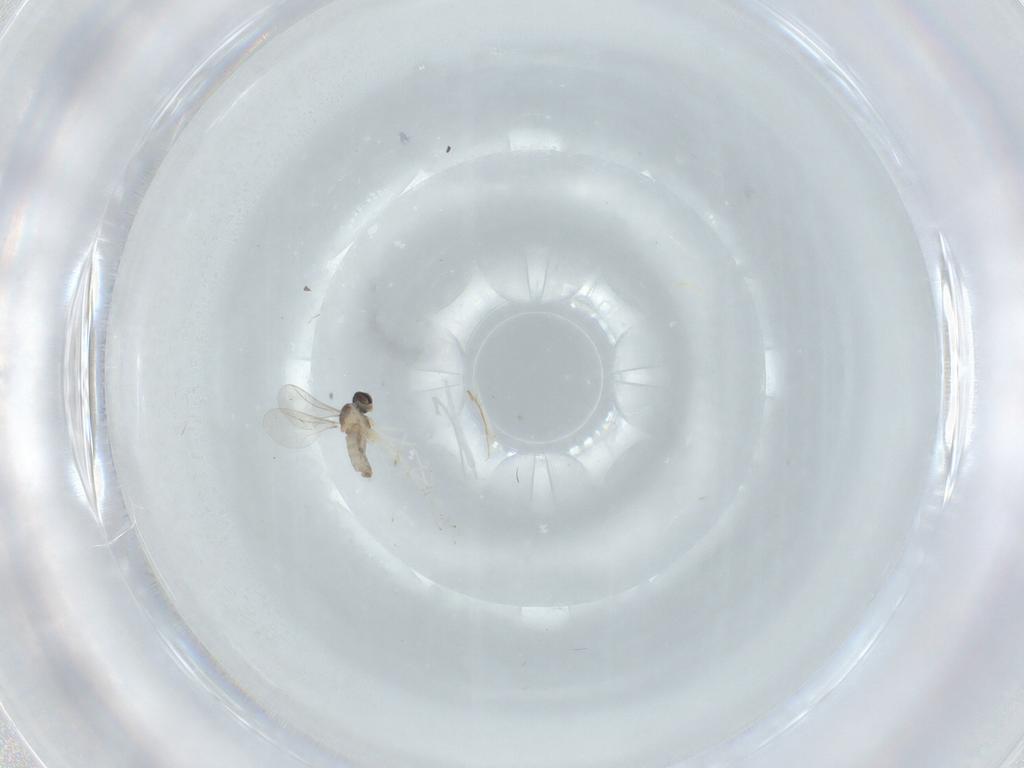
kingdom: Animalia
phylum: Arthropoda
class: Insecta
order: Diptera
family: Cecidomyiidae
